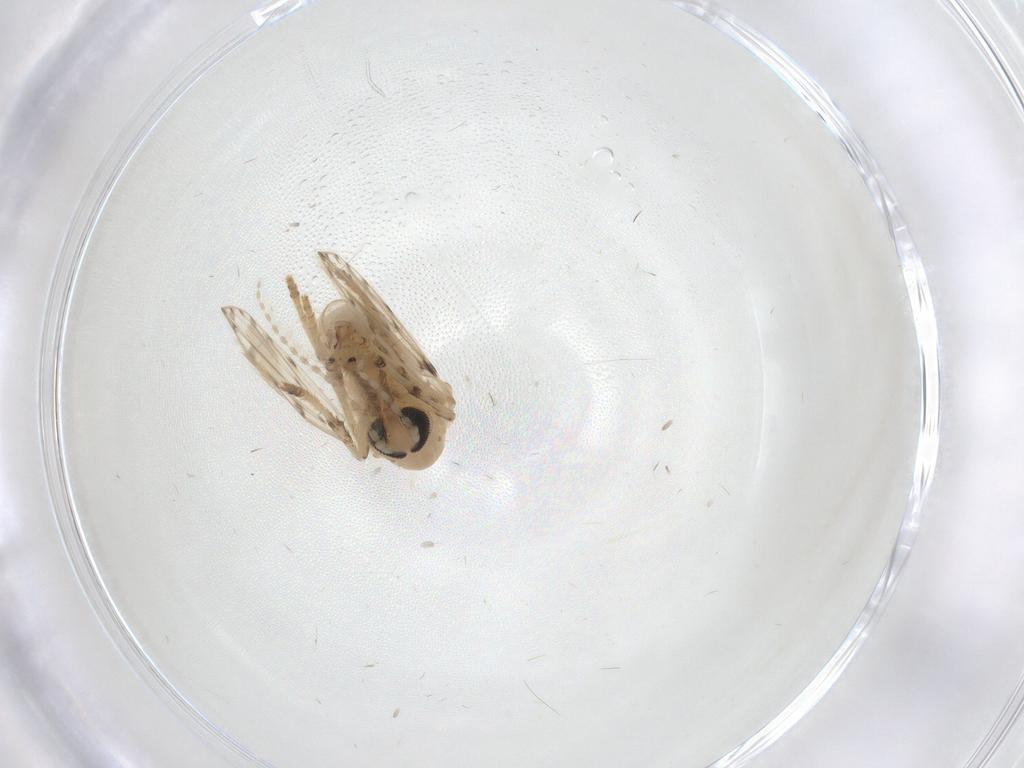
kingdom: Animalia
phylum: Arthropoda
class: Insecta
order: Diptera
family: Psychodidae
